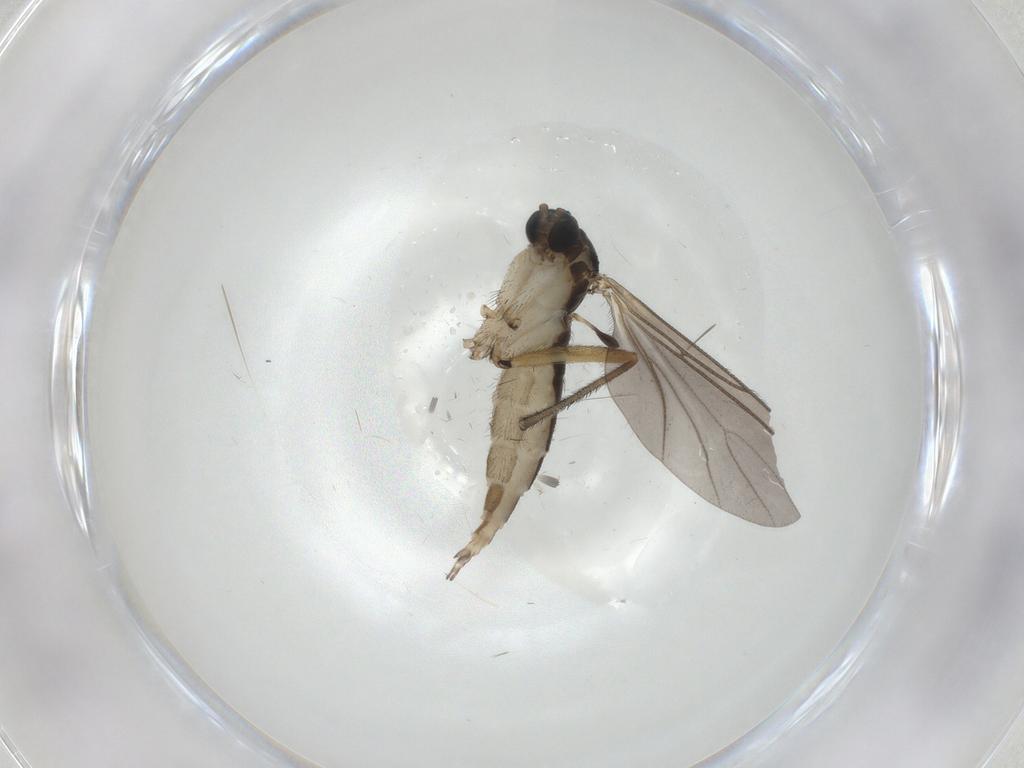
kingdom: Animalia
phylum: Arthropoda
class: Insecta
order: Diptera
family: Sciaridae
